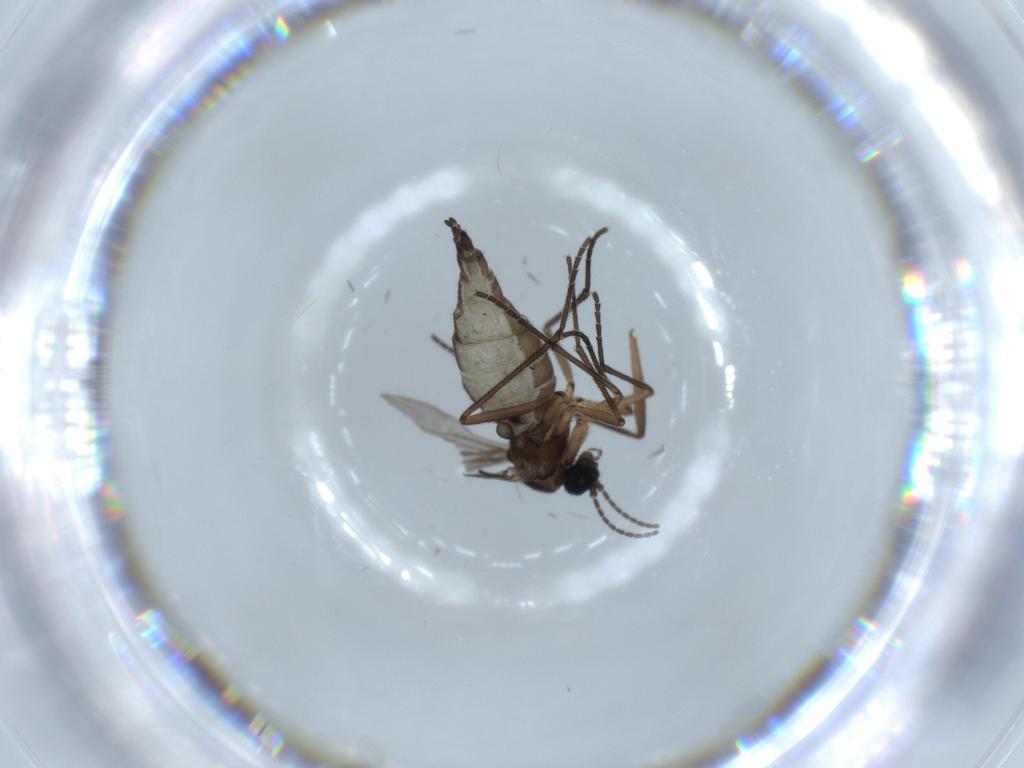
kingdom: Animalia
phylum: Arthropoda
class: Insecta
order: Diptera
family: Sciaridae
